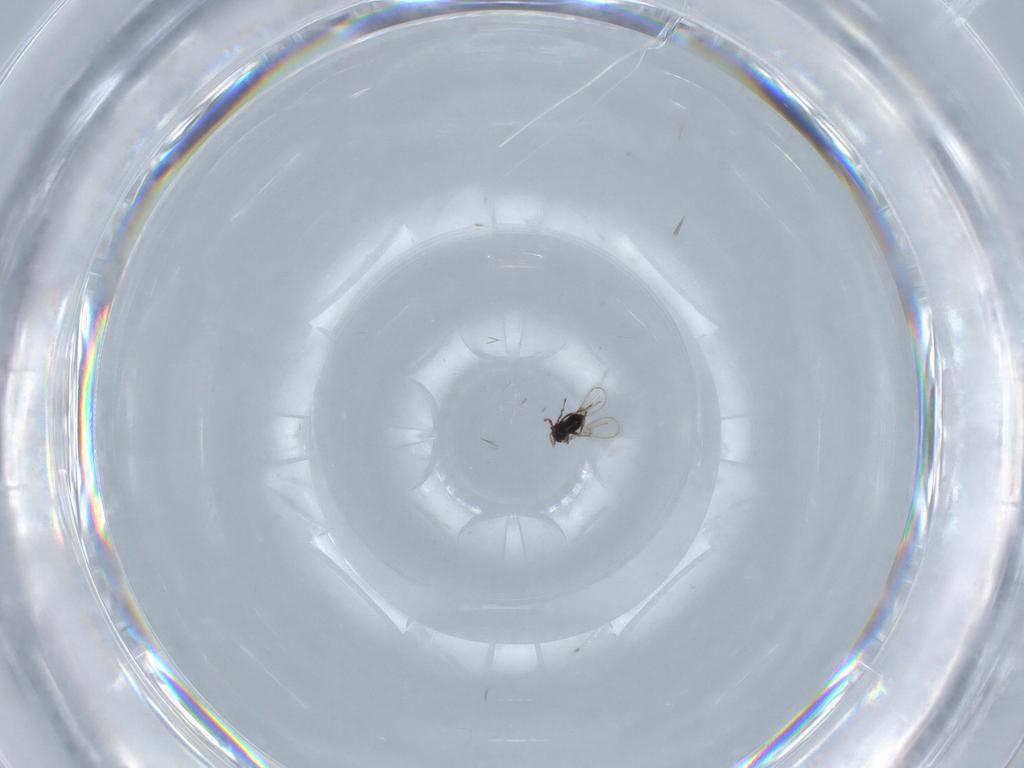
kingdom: Animalia
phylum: Arthropoda
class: Insecta
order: Hymenoptera
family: Trichogrammatidae
